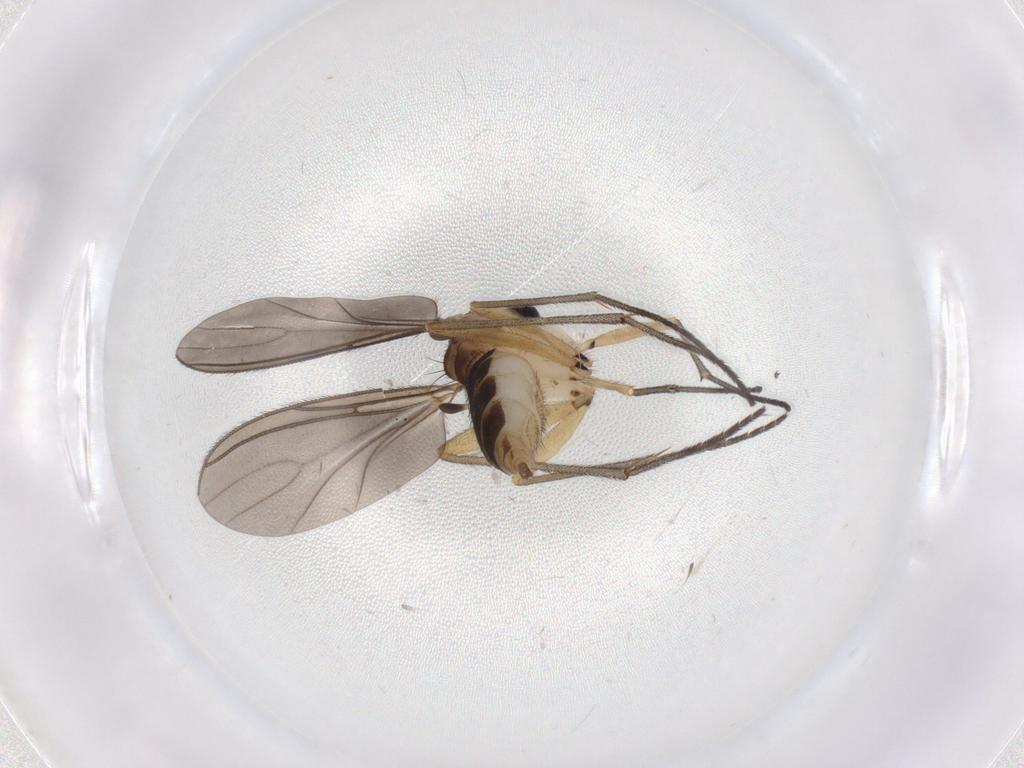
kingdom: Animalia
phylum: Arthropoda
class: Insecta
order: Diptera
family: Sciaridae
